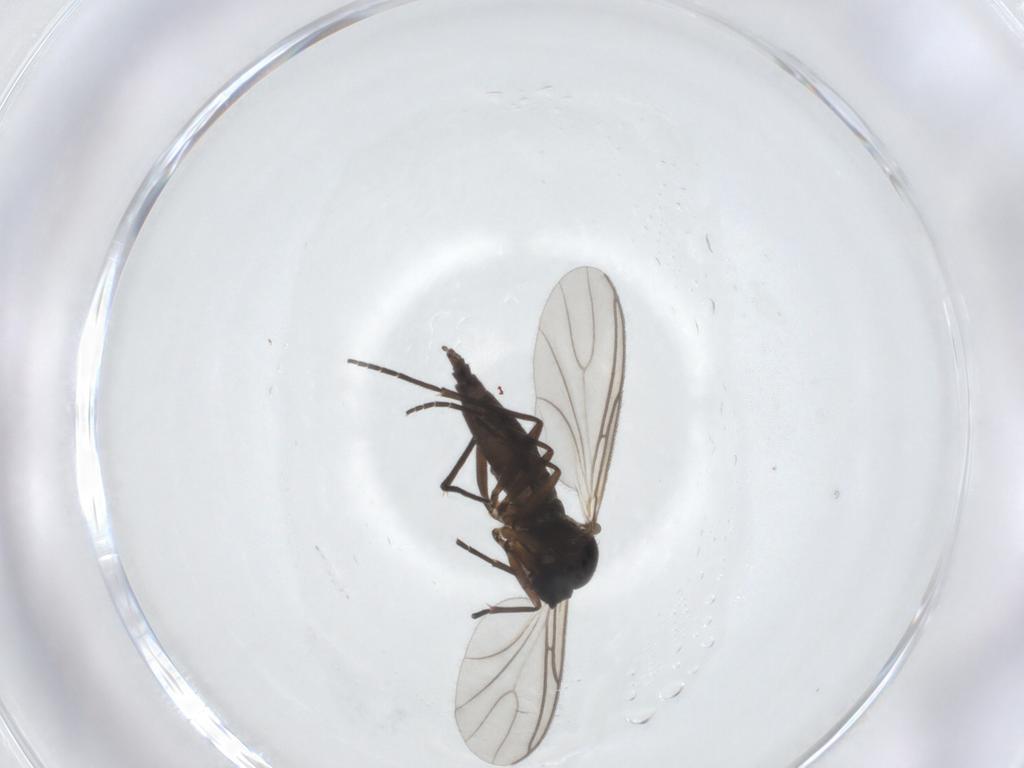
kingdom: Animalia
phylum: Arthropoda
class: Insecta
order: Diptera
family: Sciaridae
